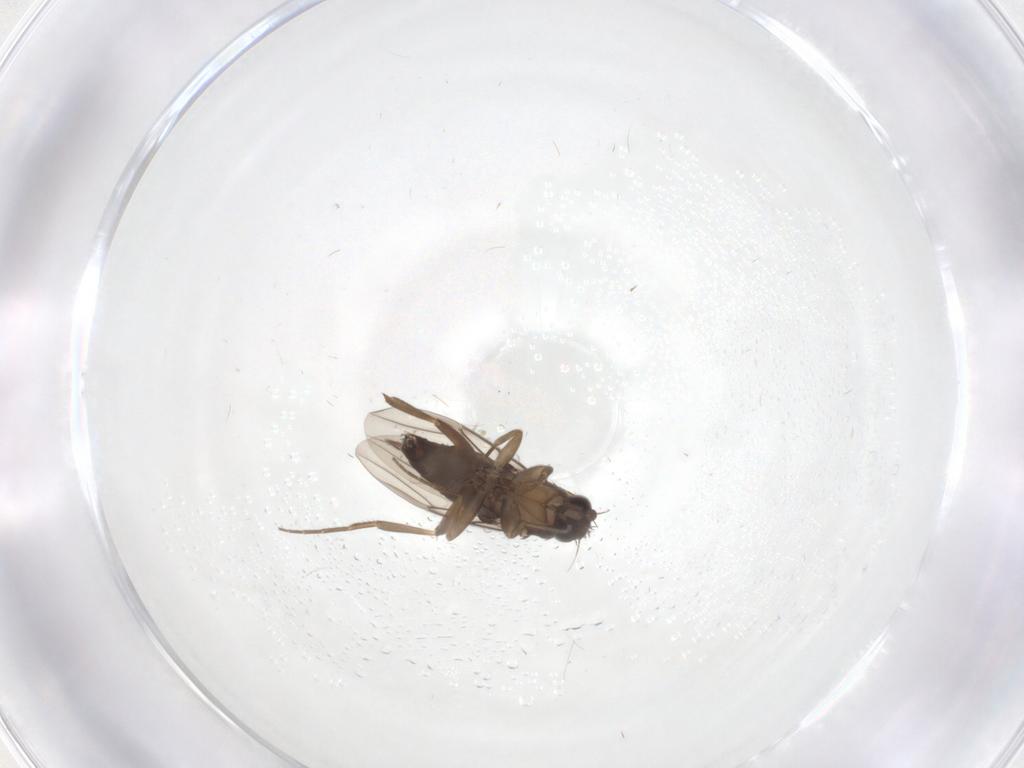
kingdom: Animalia
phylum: Arthropoda
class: Insecta
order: Diptera
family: Phoridae
